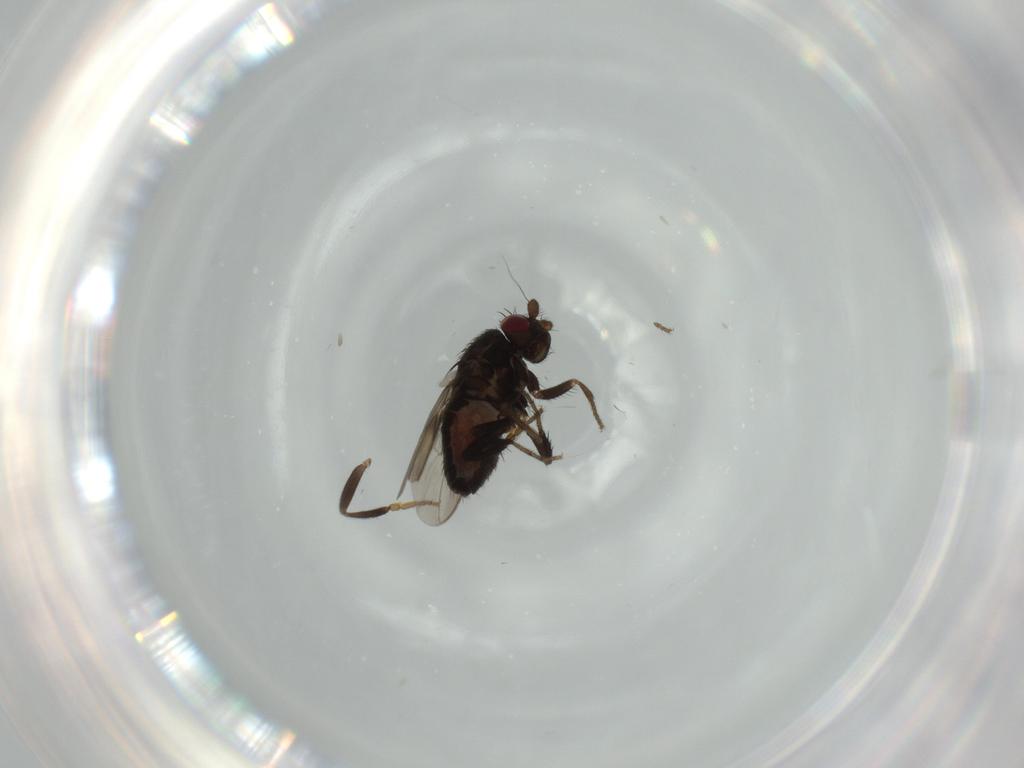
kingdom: Animalia
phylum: Arthropoda
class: Insecta
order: Diptera
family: Sphaeroceridae
